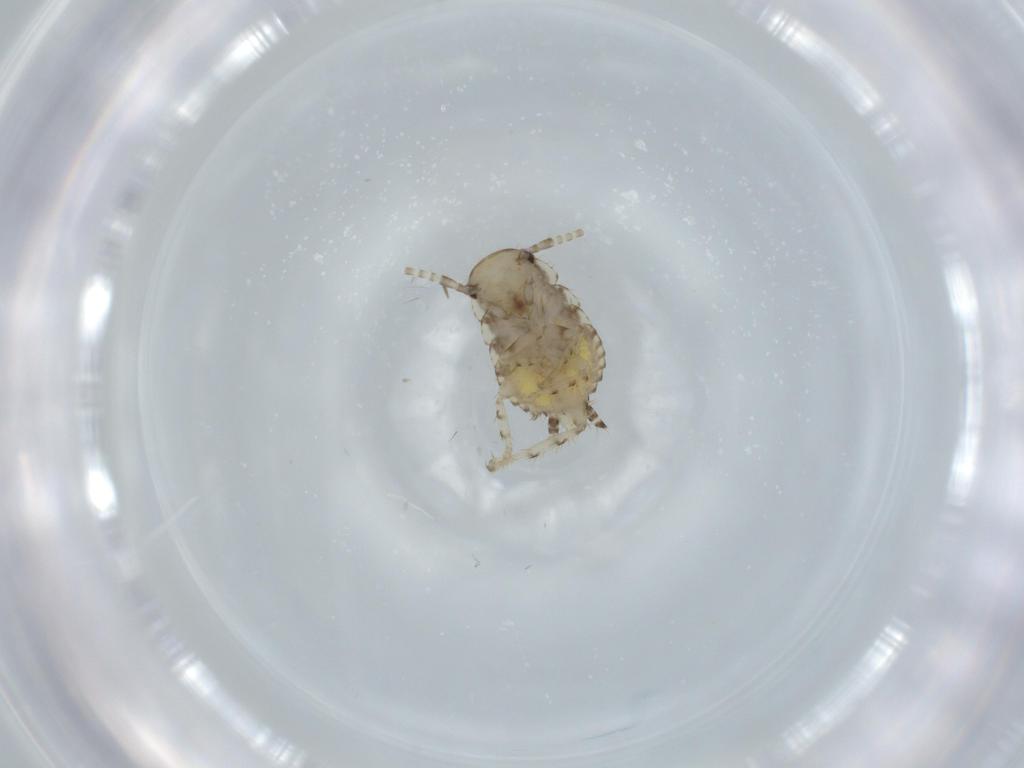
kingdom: Animalia
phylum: Arthropoda
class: Insecta
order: Blattodea
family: Ectobiidae
